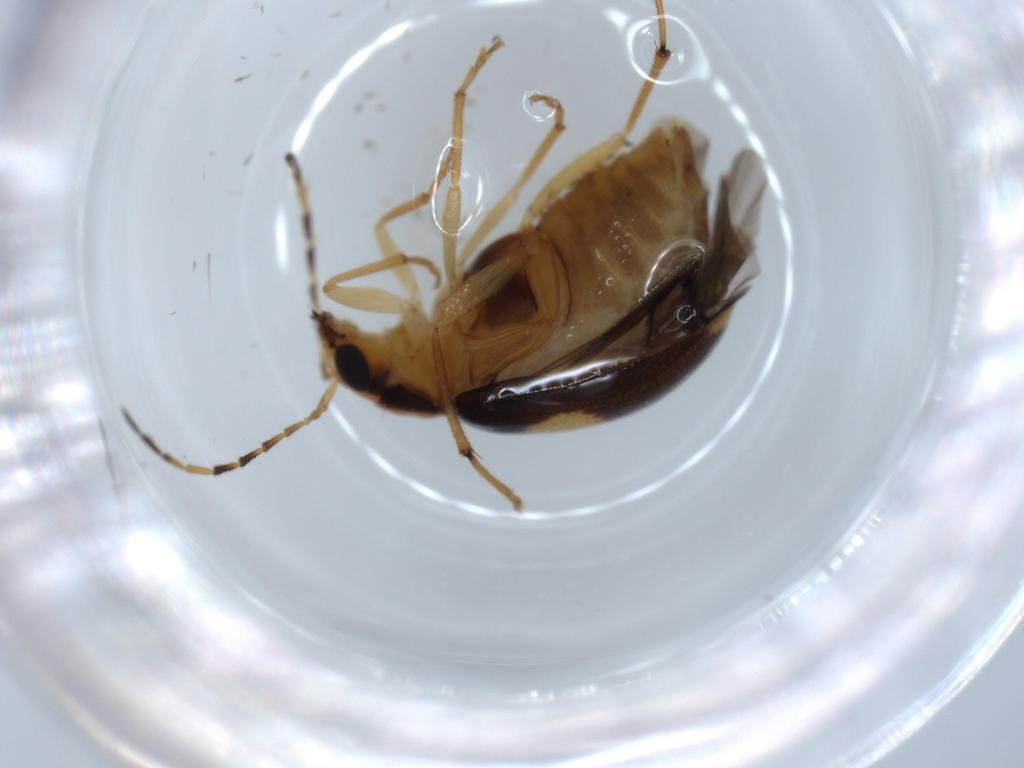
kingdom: Animalia
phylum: Arthropoda
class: Insecta
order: Coleoptera
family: Chrysomelidae
